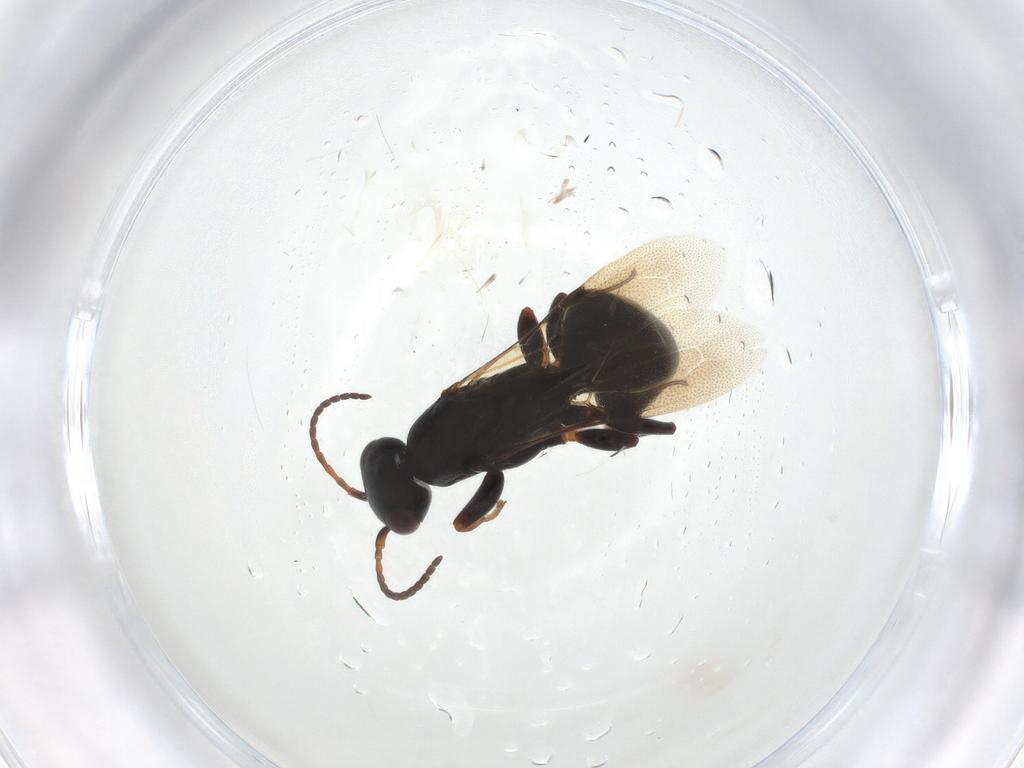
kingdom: Animalia
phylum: Arthropoda
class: Insecta
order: Hymenoptera
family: Bethylidae
